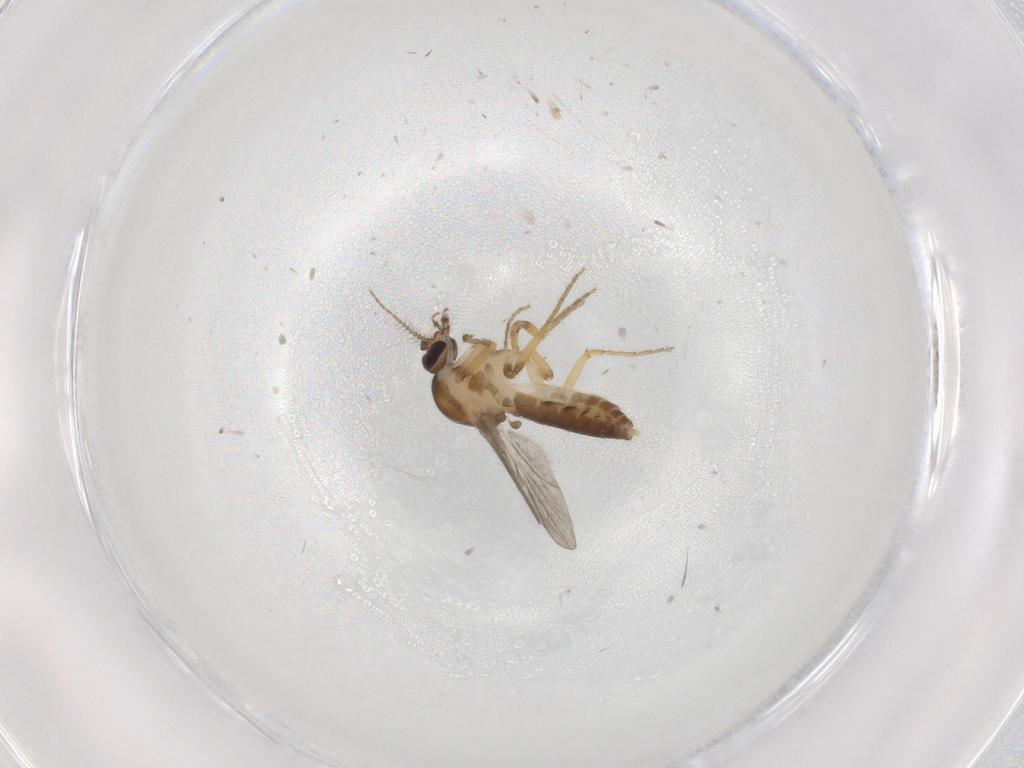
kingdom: Animalia
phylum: Arthropoda
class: Insecta
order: Diptera
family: Ceratopogonidae
